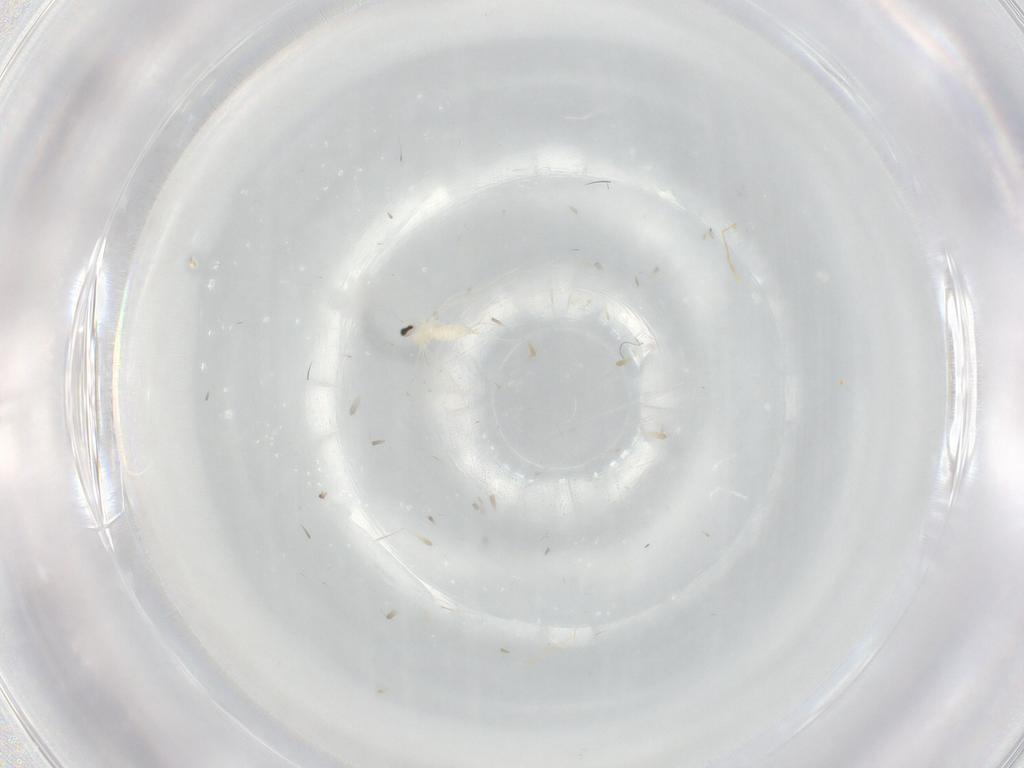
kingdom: Animalia
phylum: Arthropoda
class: Insecta
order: Diptera
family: Cecidomyiidae
